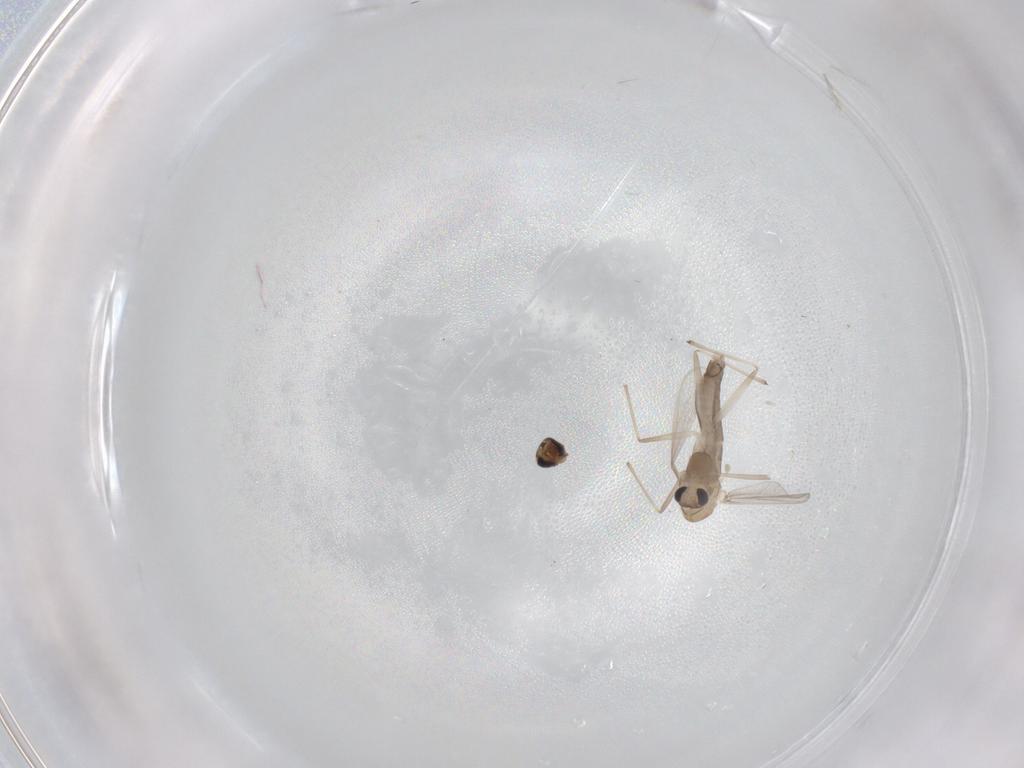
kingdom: Animalia
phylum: Arthropoda
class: Insecta
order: Diptera
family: Chironomidae
